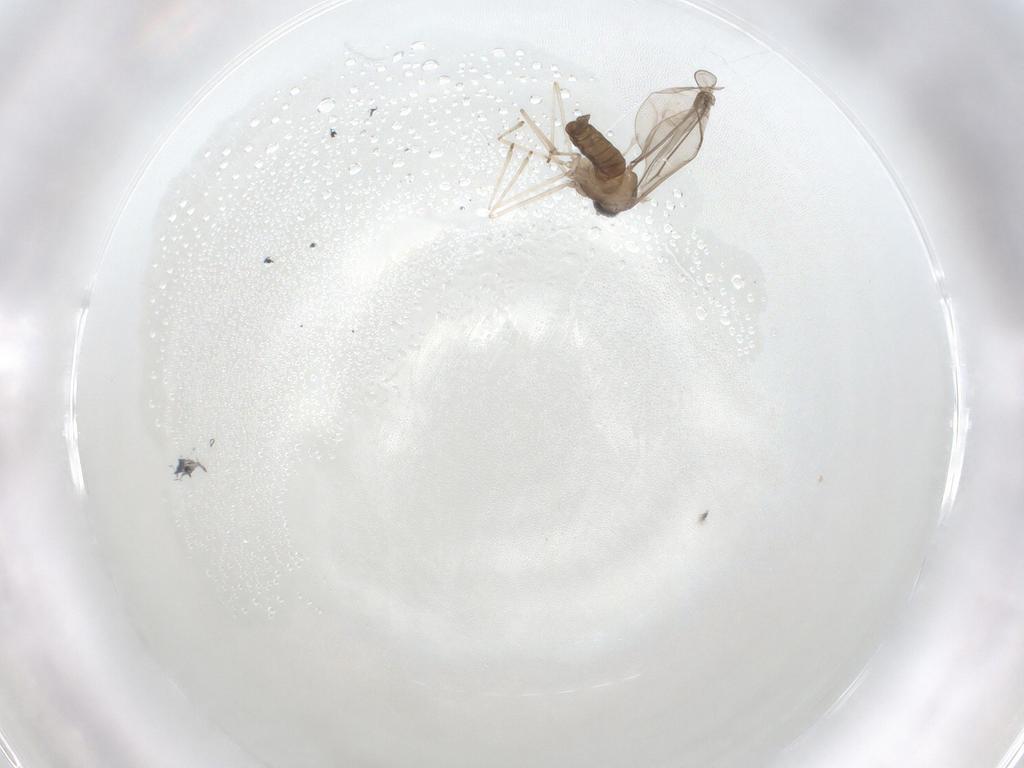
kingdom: Animalia
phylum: Arthropoda
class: Insecta
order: Diptera
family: Cecidomyiidae
